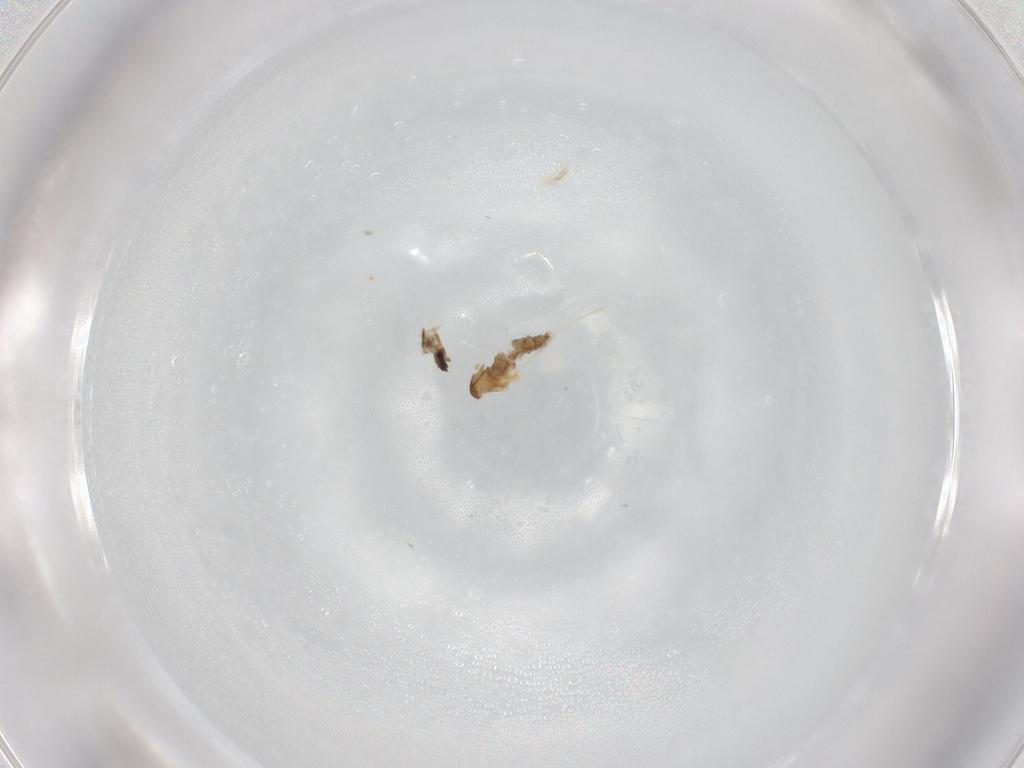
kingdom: Animalia
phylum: Arthropoda
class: Insecta
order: Diptera
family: Cecidomyiidae
